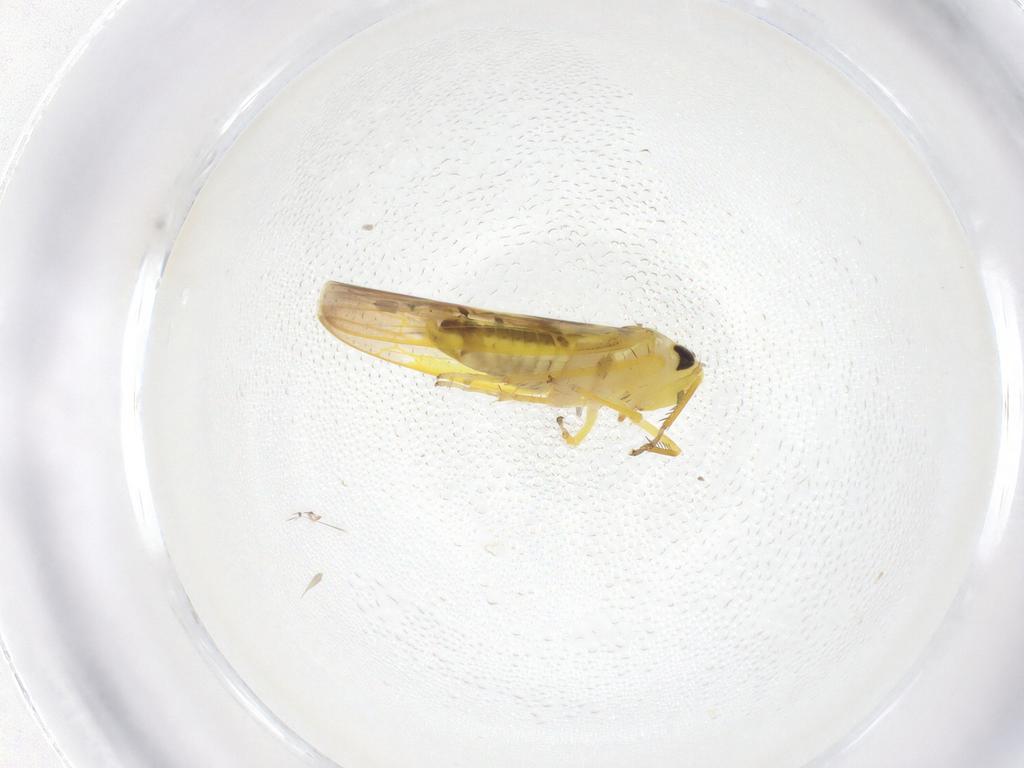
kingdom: Animalia
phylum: Arthropoda
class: Insecta
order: Hemiptera
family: Cicadellidae
